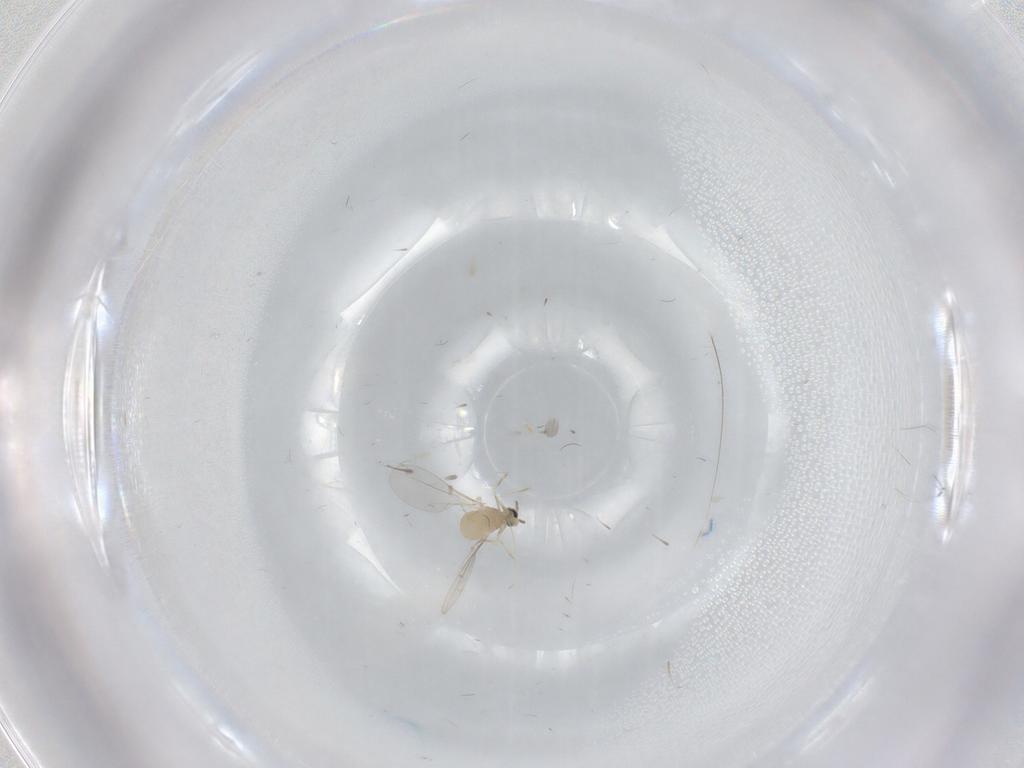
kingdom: Animalia
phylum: Arthropoda
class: Insecta
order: Diptera
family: Cecidomyiidae
